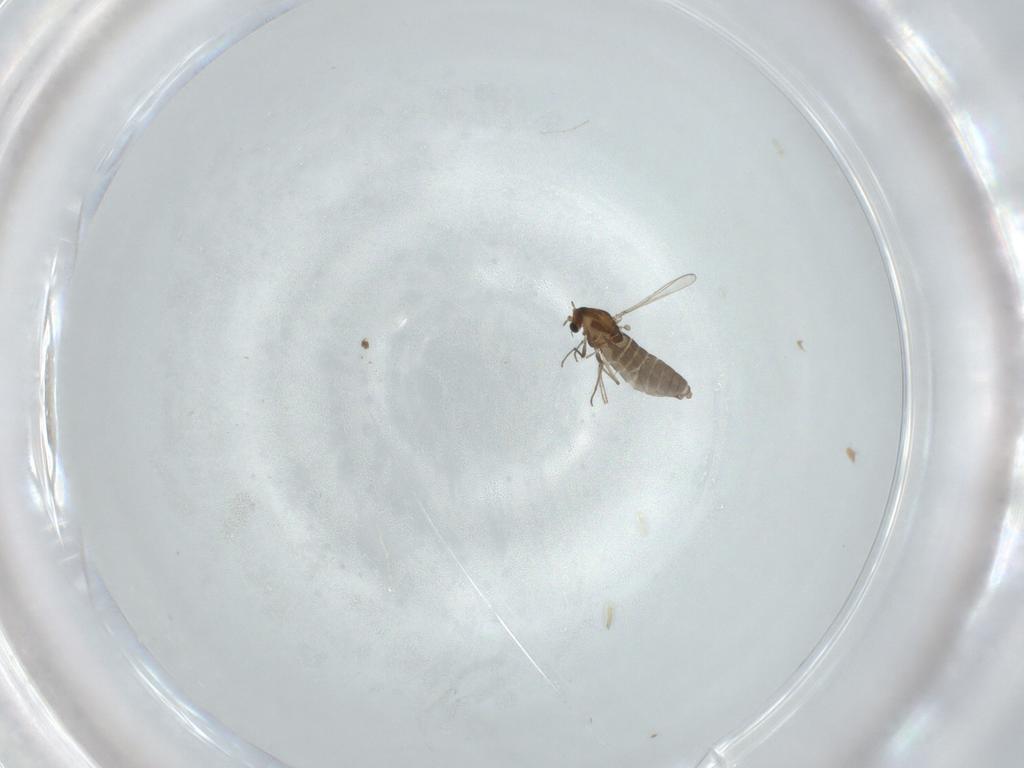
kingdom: Animalia
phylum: Arthropoda
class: Insecta
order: Diptera
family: Chironomidae
